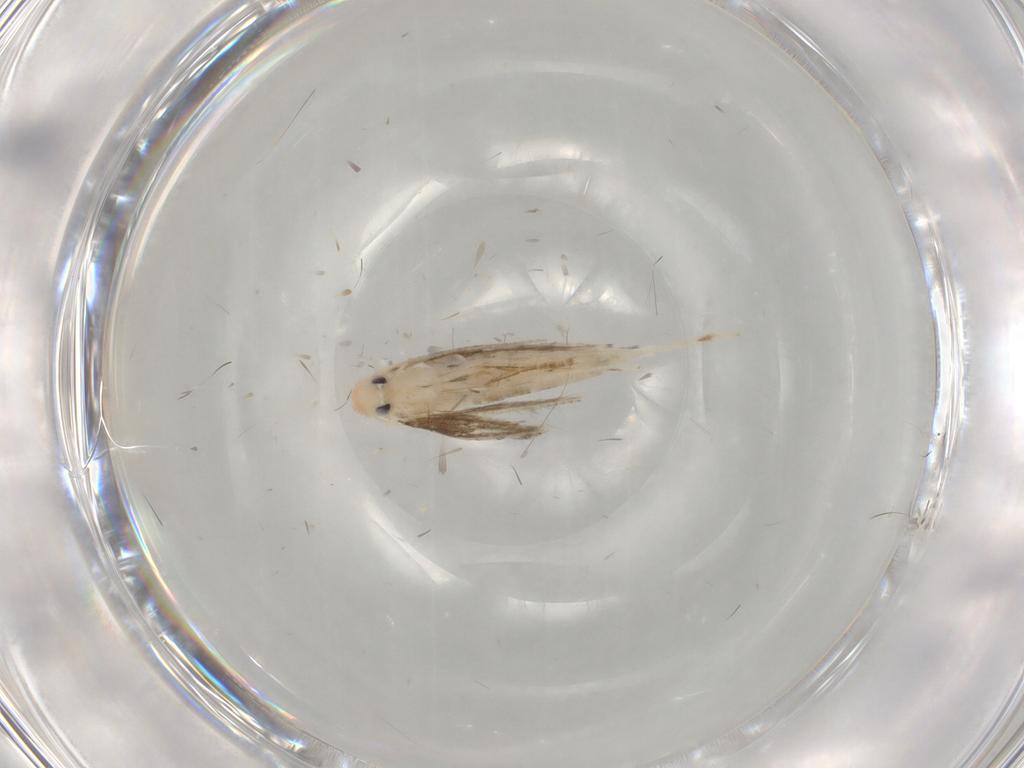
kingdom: Animalia
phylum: Arthropoda
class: Insecta
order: Lepidoptera
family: Gracillariidae
